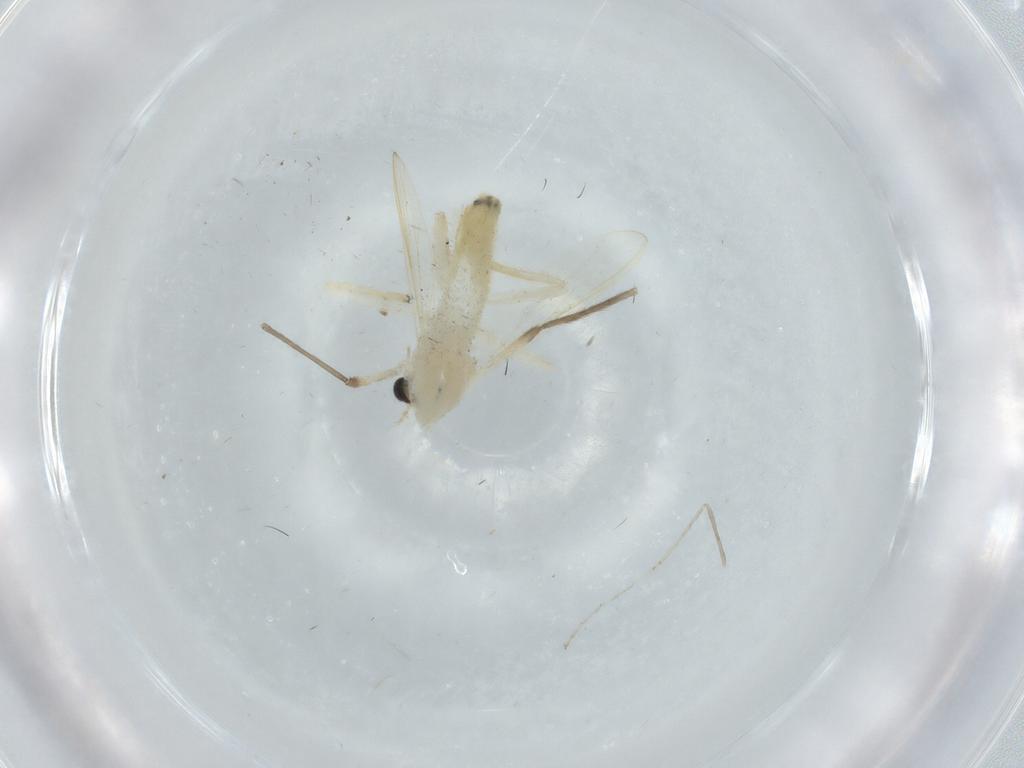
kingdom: Animalia
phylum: Arthropoda
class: Insecta
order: Diptera
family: Chironomidae
